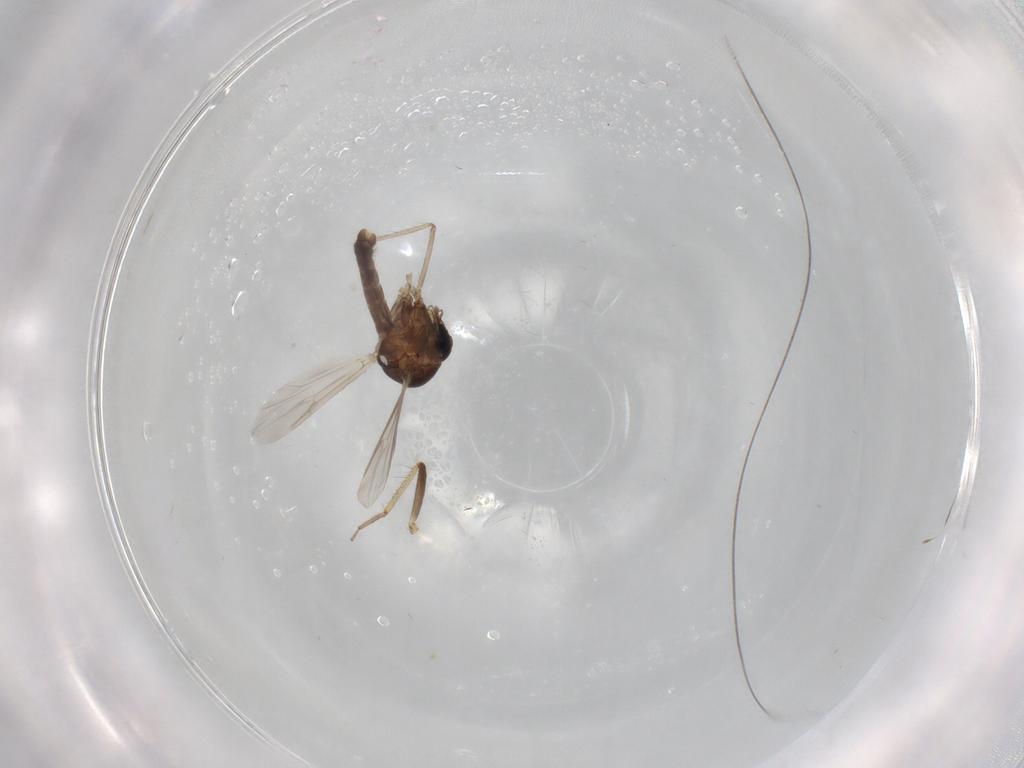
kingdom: Animalia
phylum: Arthropoda
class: Insecta
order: Diptera
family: Ceratopogonidae
